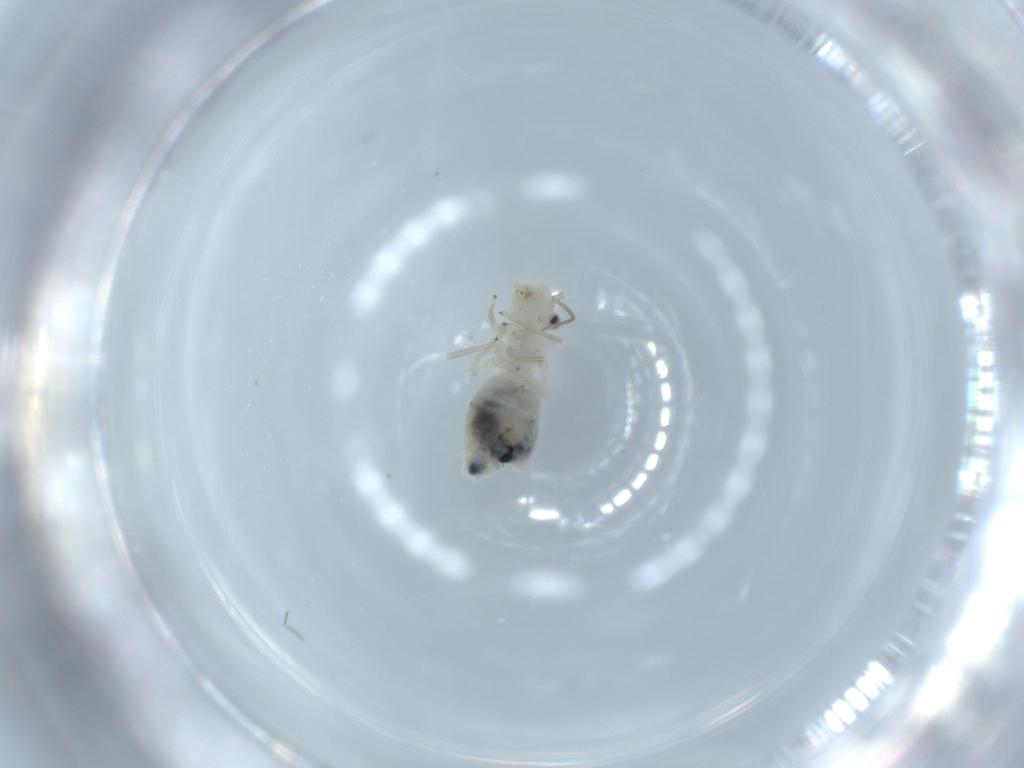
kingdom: Animalia
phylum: Arthropoda
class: Insecta
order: Psocodea
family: Caeciliusidae
